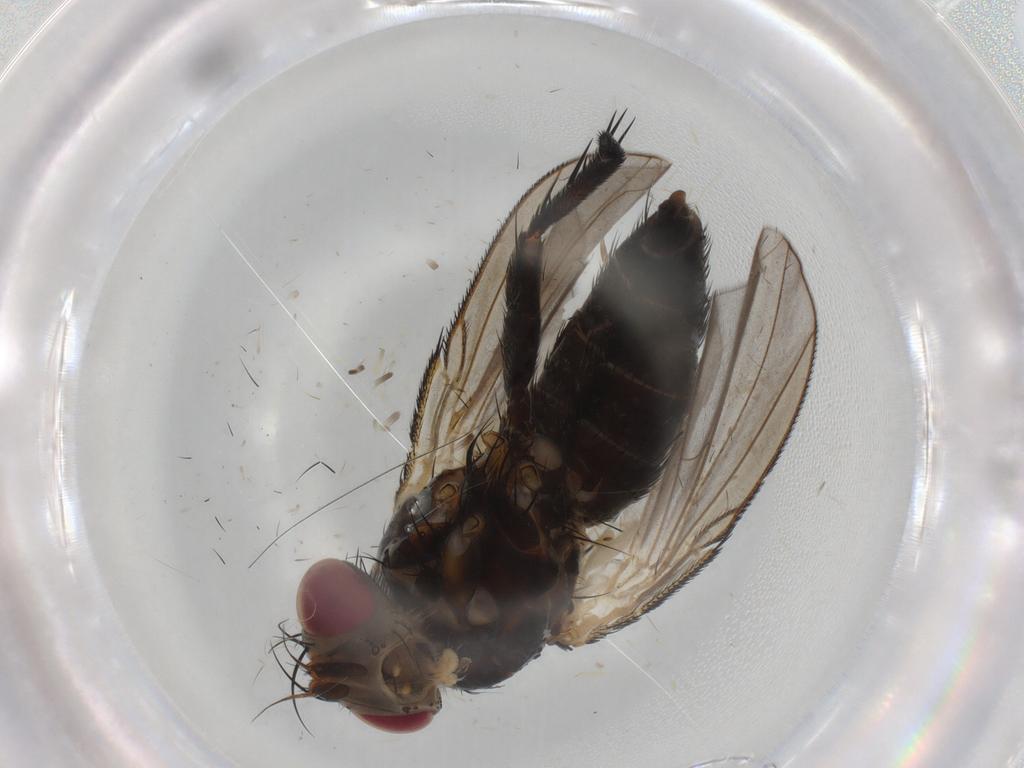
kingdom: Animalia
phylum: Arthropoda
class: Insecta
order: Diptera
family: Tachinidae
